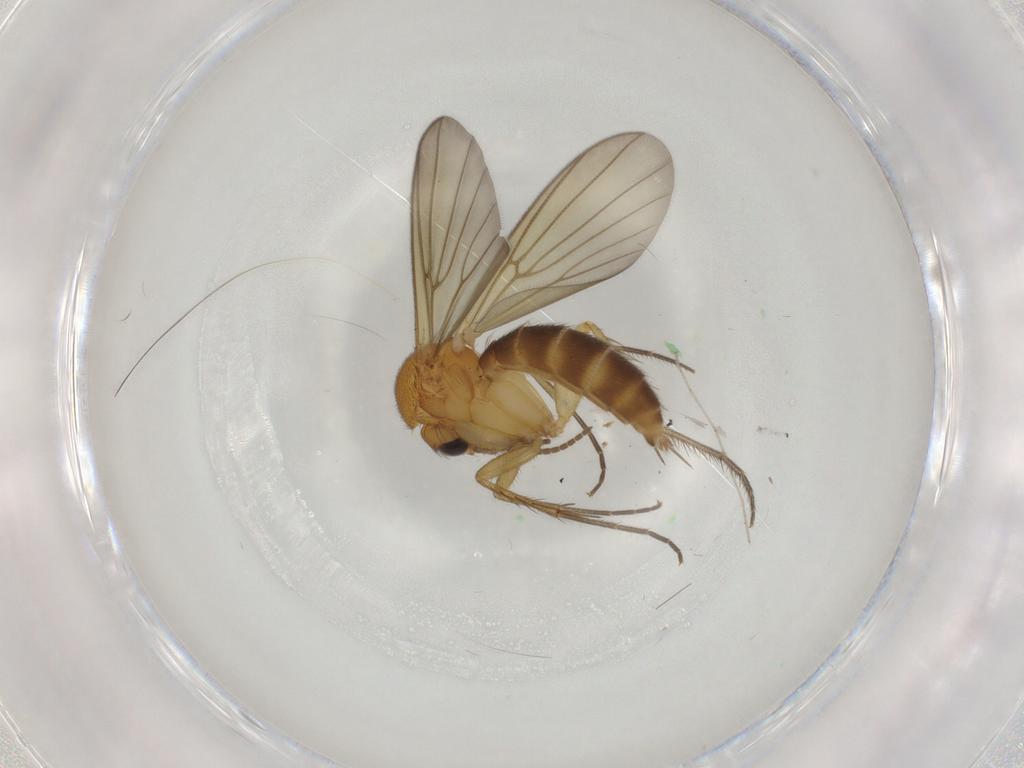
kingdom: Animalia
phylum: Arthropoda
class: Insecta
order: Diptera
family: Mycetophilidae
